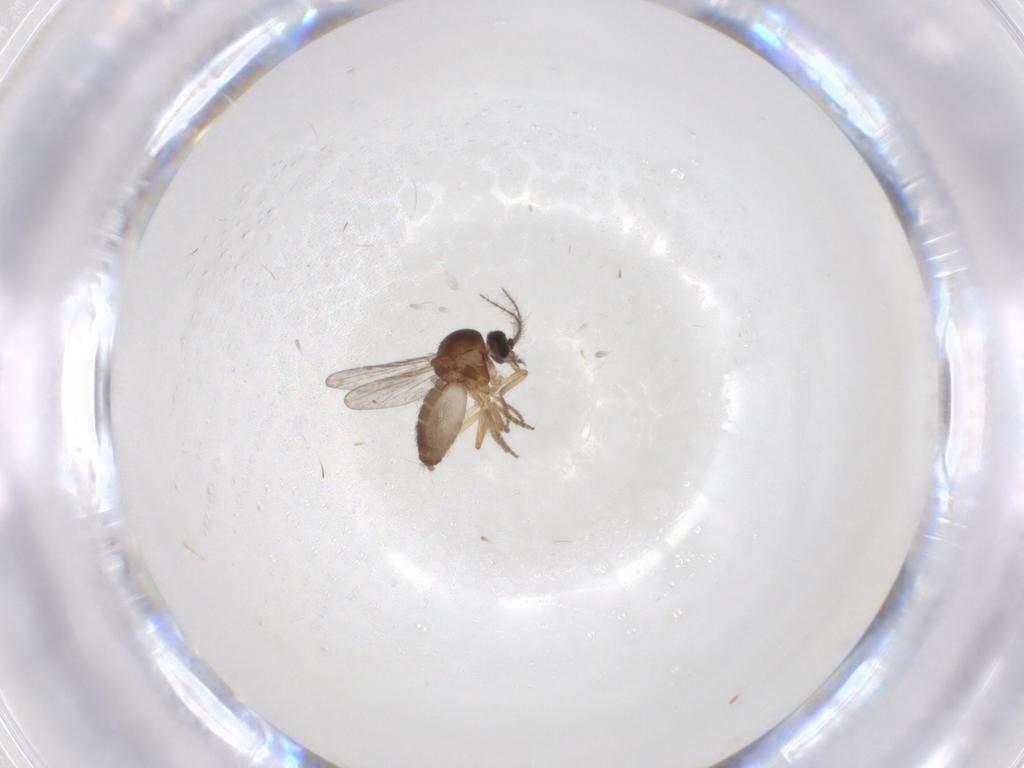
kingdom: Animalia
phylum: Arthropoda
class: Insecta
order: Diptera
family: Ceratopogonidae
